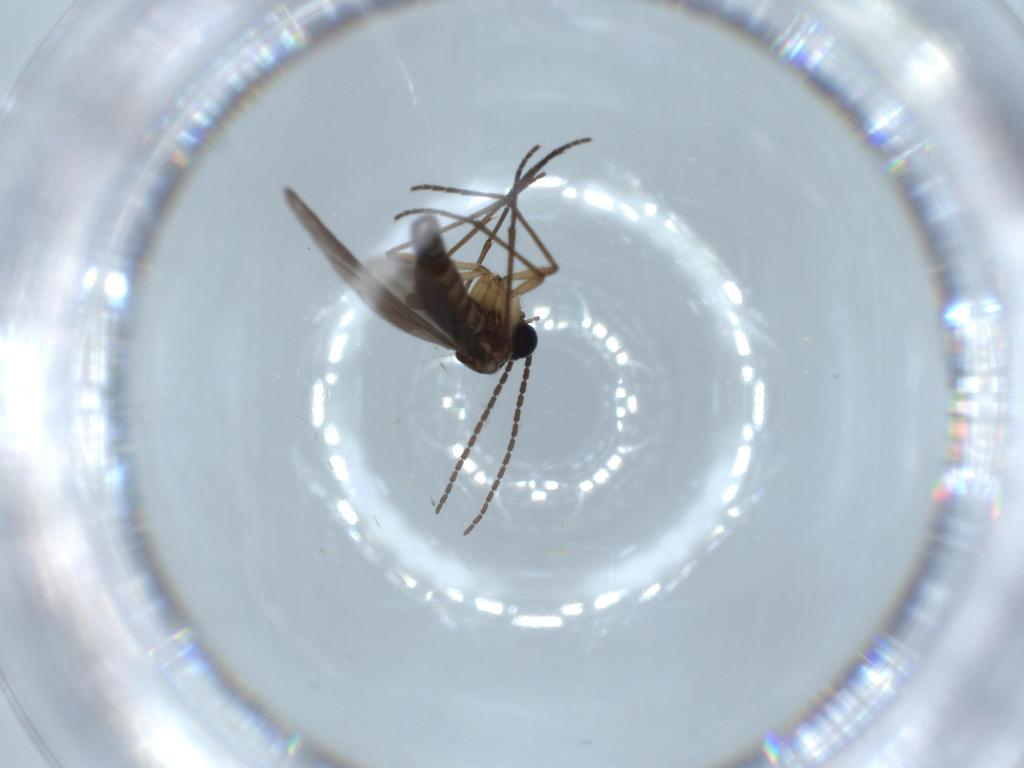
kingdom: Animalia
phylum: Arthropoda
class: Insecta
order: Diptera
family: Sciaridae
